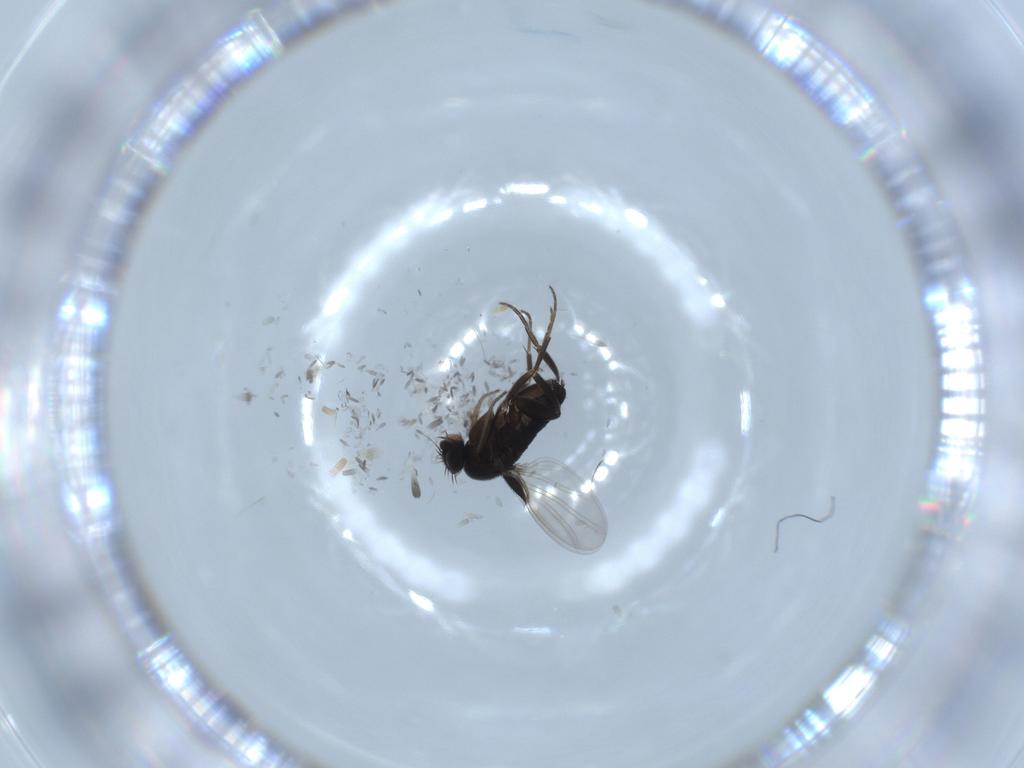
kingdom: Animalia
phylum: Arthropoda
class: Insecta
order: Diptera
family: Phoridae
